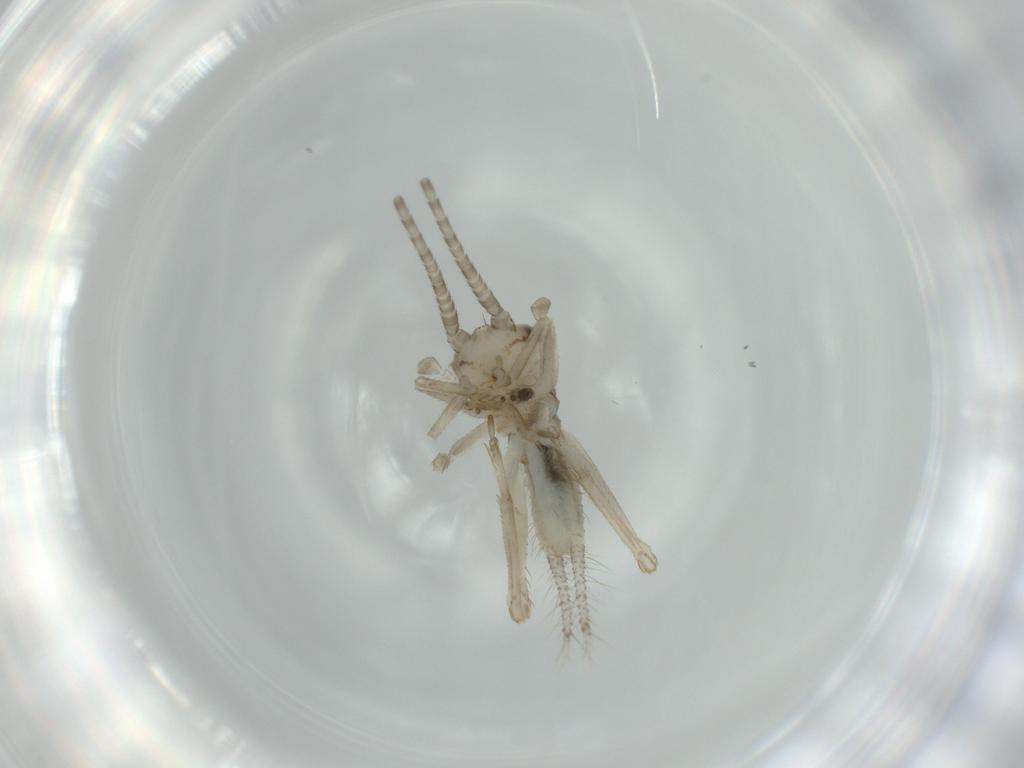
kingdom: Animalia
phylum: Arthropoda
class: Insecta
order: Orthoptera
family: Gryllidae
